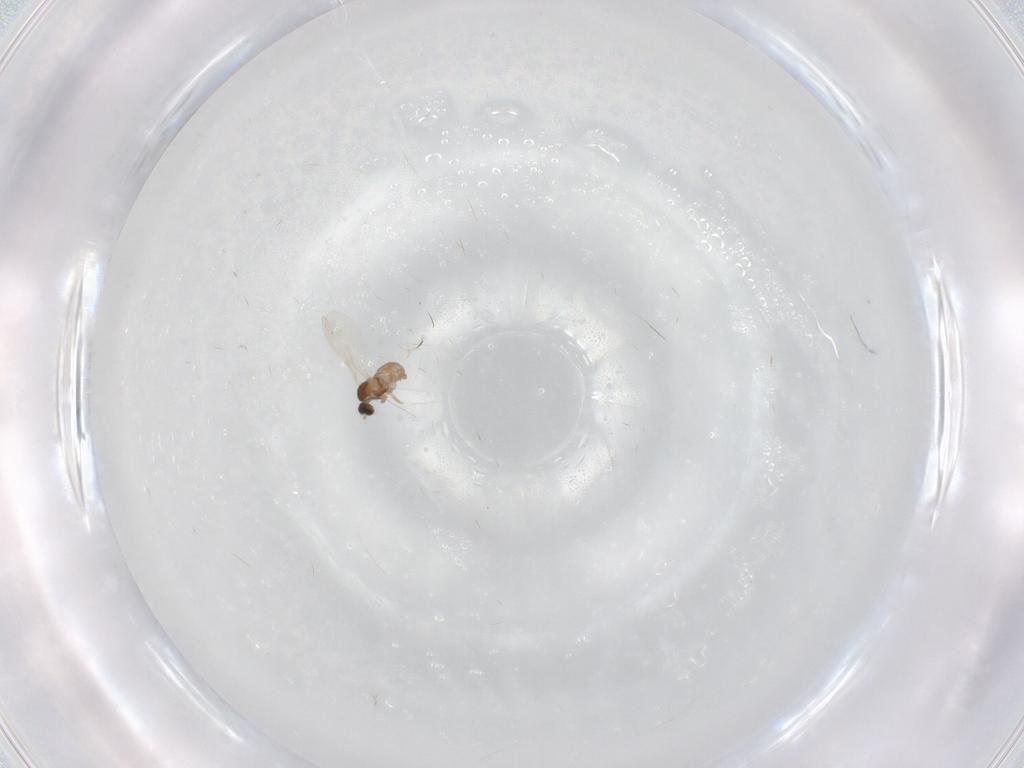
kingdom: Animalia
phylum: Arthropoda
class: Insecta
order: Diptera
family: Cecidomyiidae
